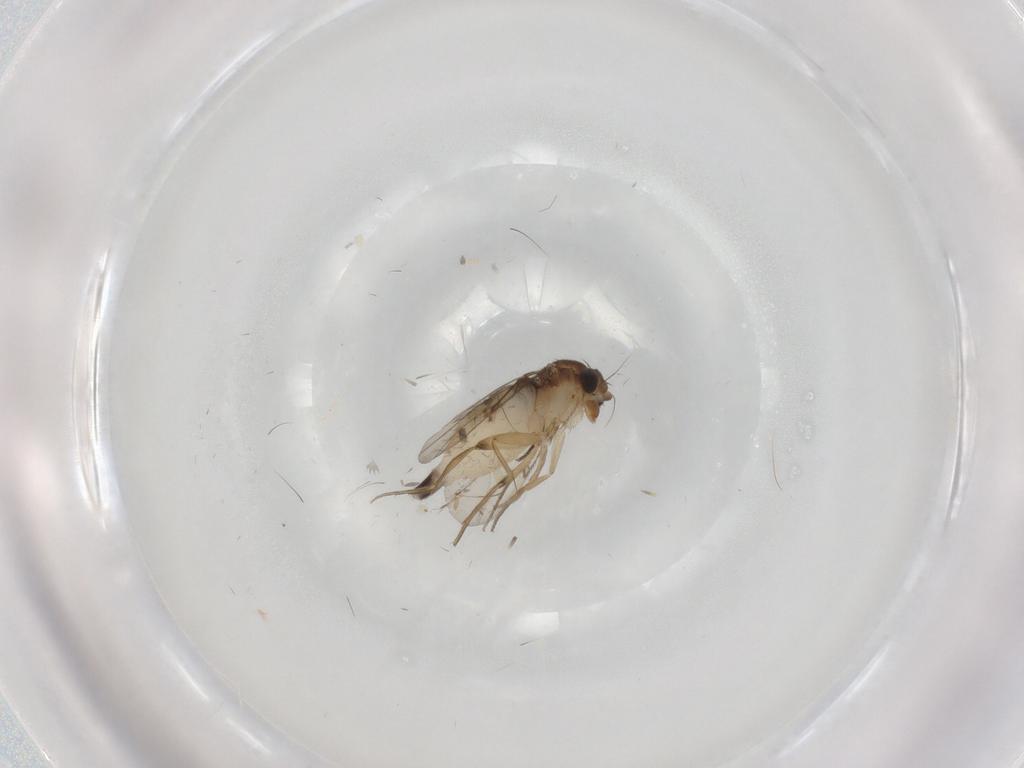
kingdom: Animalia
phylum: Arthropoda
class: Insecta
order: Diptera
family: Phoridae
